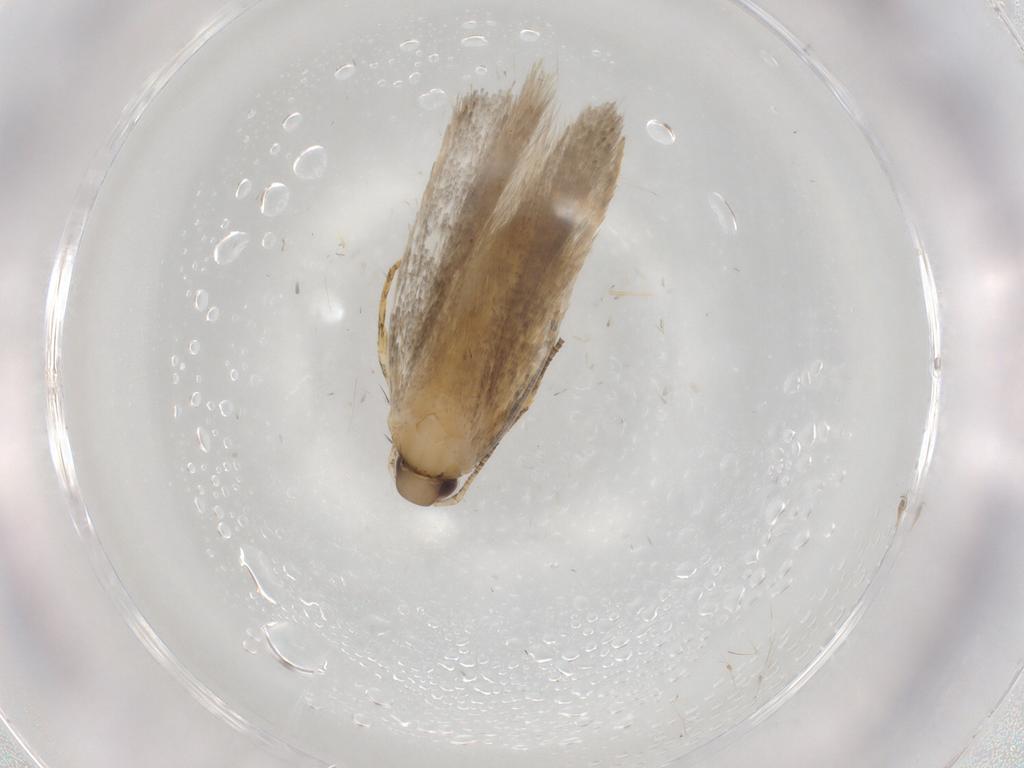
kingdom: Animalia
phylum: Arthropoda
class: Insecta
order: Lepidoptera
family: Autostichidae
